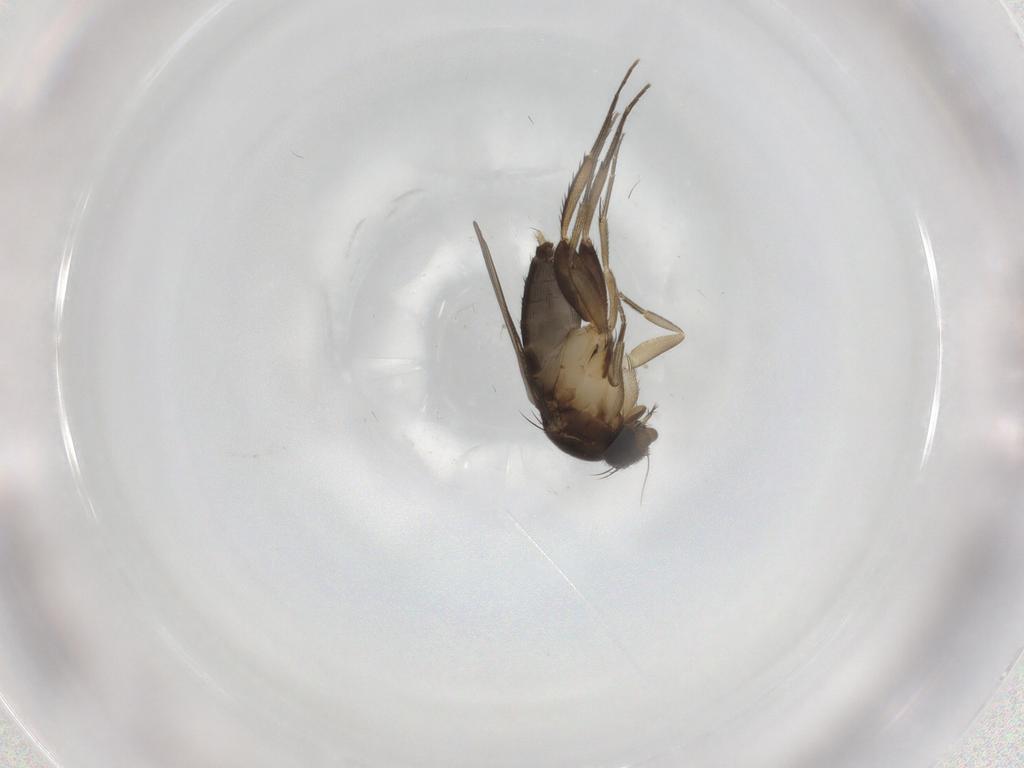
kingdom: Animalia
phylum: Arthropoda
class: Insecta
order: Diptera
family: Phoridae
